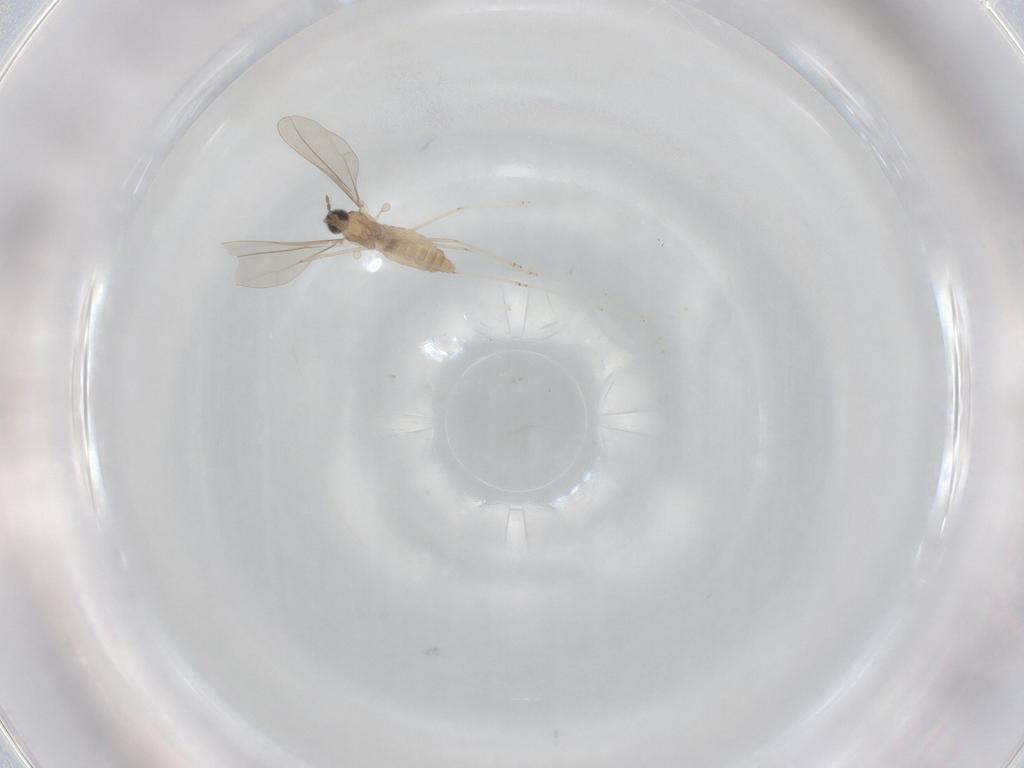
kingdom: Animalia
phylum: Arthropoda
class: Insecta
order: Diptera
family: Cecidomyiidae
